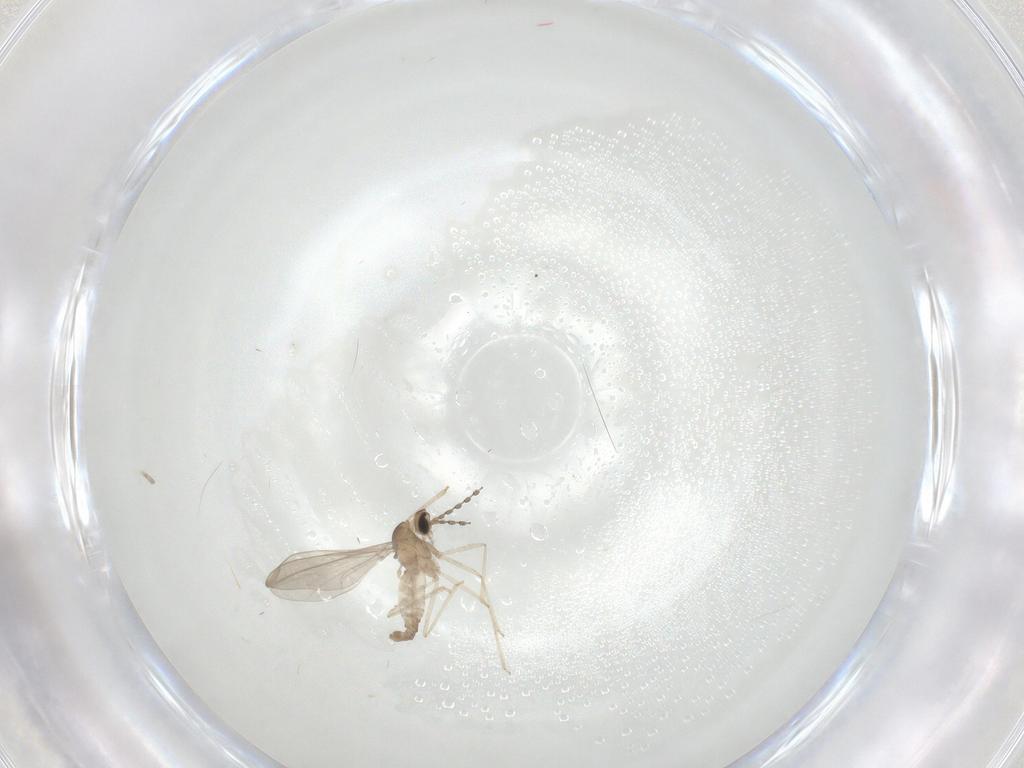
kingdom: Animalia
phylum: Arthropoda
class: Insecta
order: Diptera
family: Cecidomyiidae
